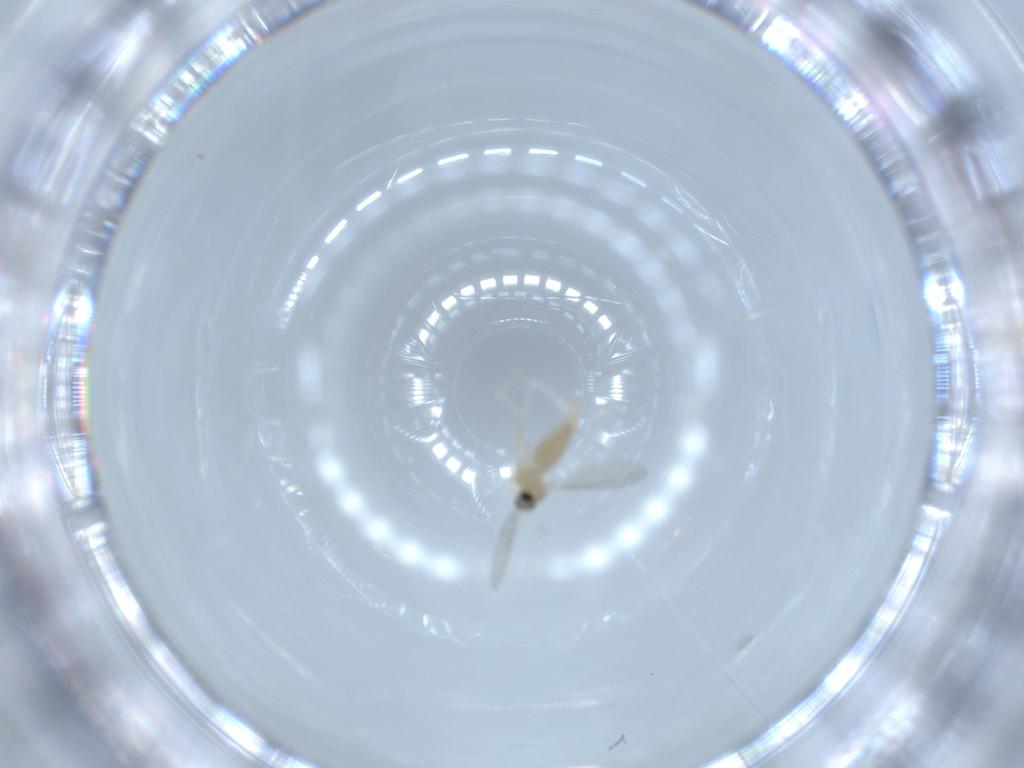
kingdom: Animalia
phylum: Arthropoda
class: Insecta
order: Diptera
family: Cecidomyiidae
